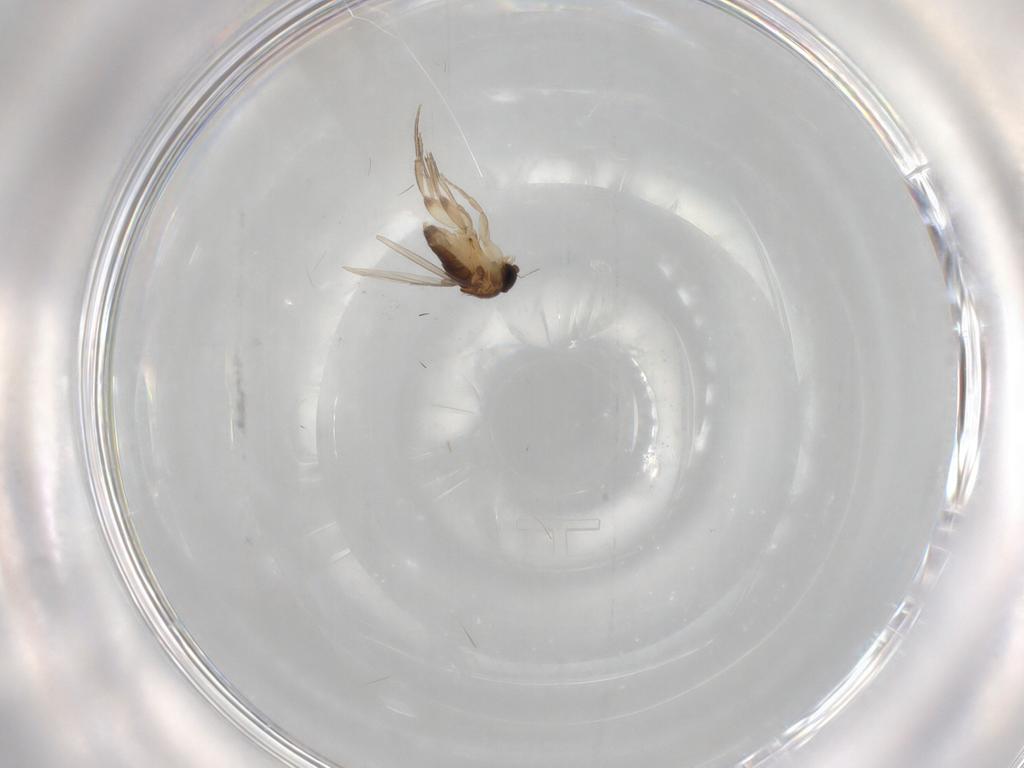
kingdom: Animalia
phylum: Arthropoda
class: Insecta
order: Diptera
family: Phoridae
